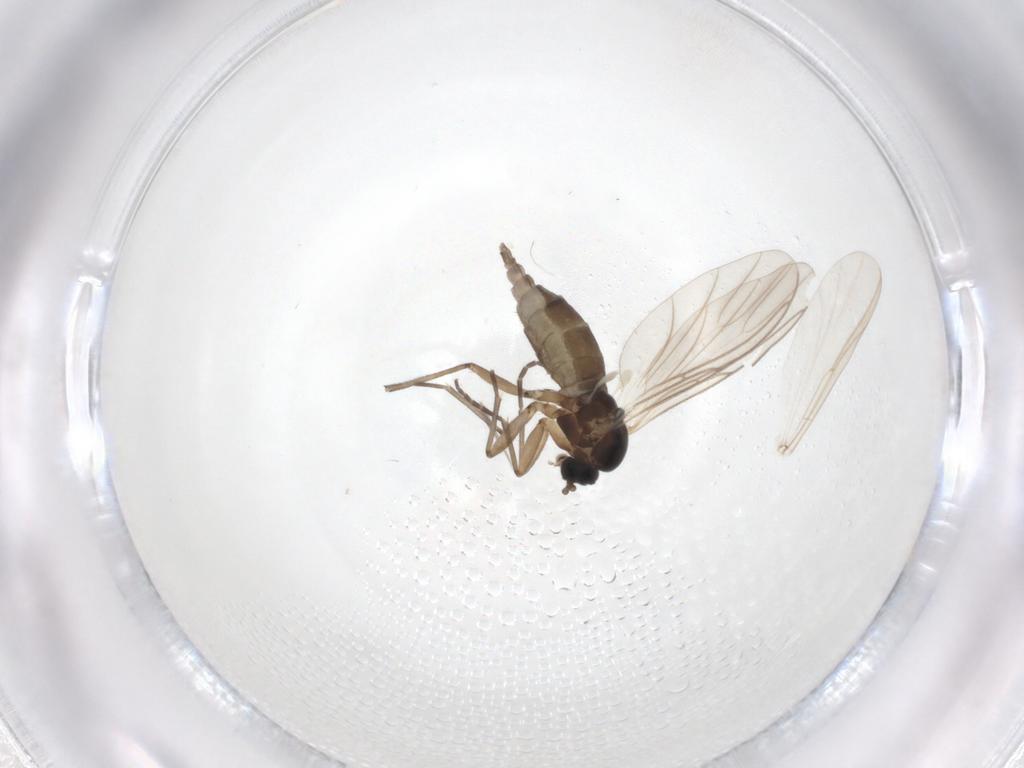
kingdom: Animalia
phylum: Arthropoda
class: Insecta
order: Diptera
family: Chironomidae
